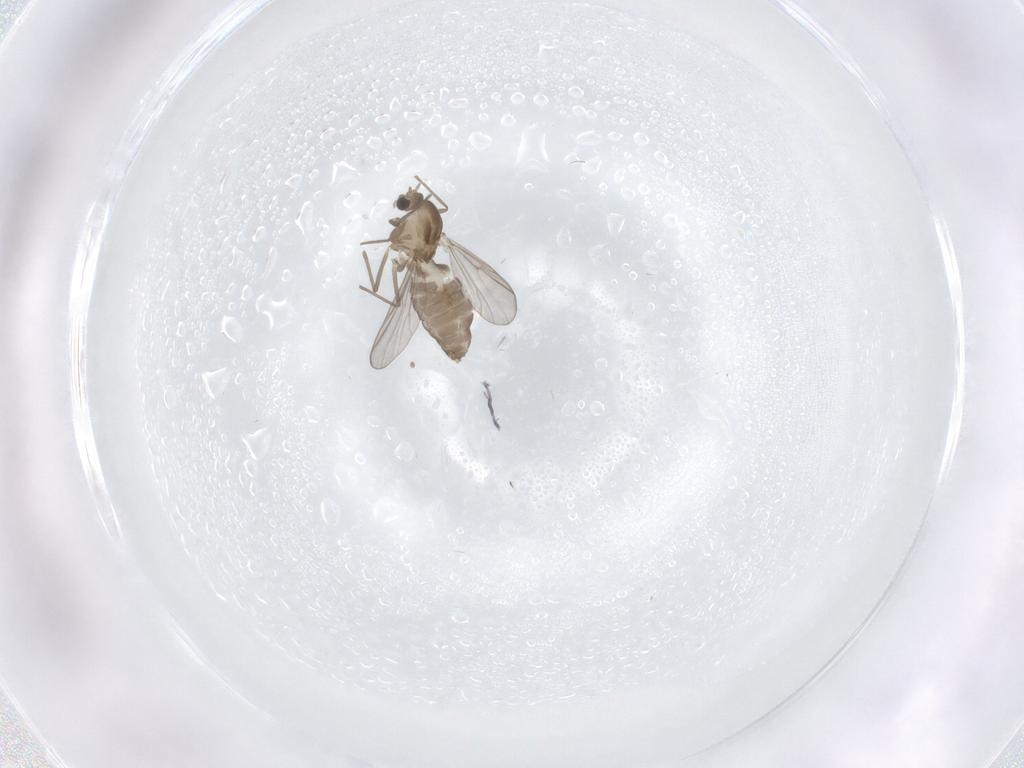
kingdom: Animalia
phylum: Arthropoda
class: Insecta
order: Diptera
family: Chironomidae
